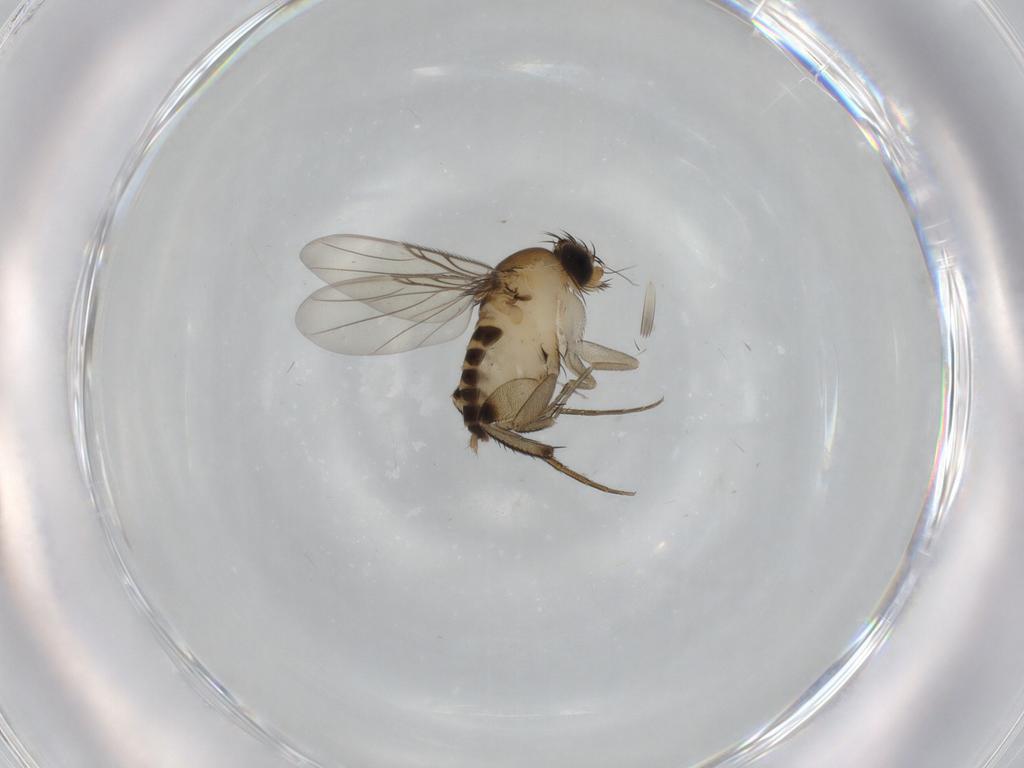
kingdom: Animalia
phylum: Arthropoda
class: Insecta
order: Diptera
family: Phoridae
